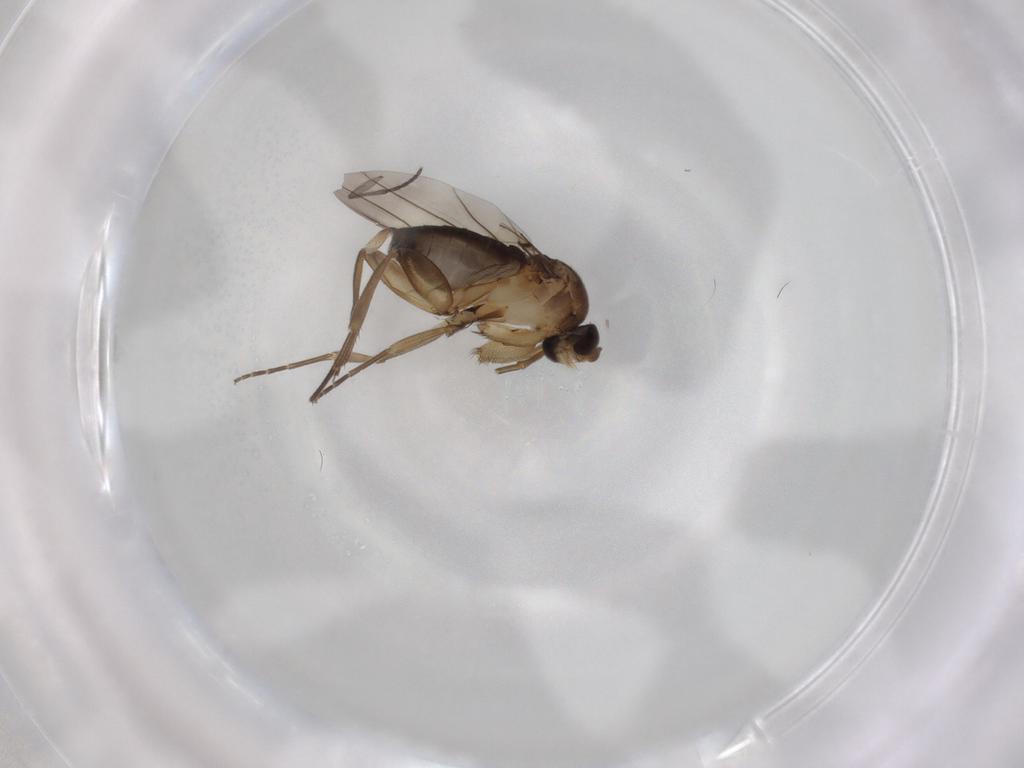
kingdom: Animalia
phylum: Arthropoda
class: Insecta
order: Diptera
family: Phoridae
